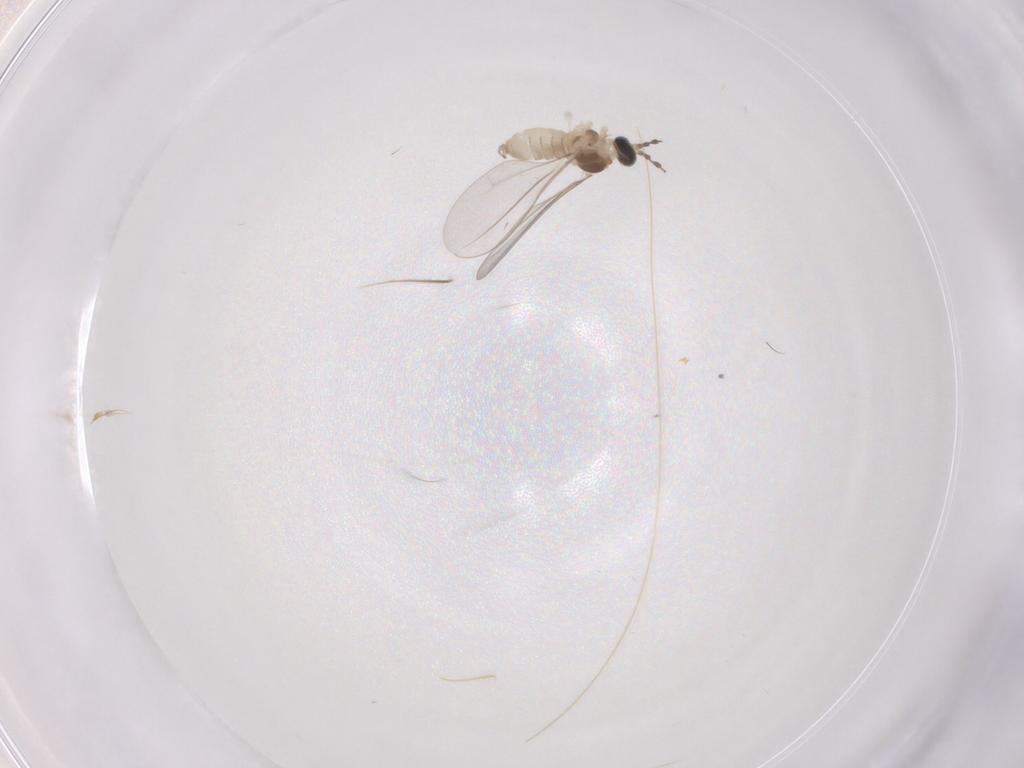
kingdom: Animalia
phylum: Arthropoda
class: Insecta
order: Diptera
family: Cecidomyiidae
